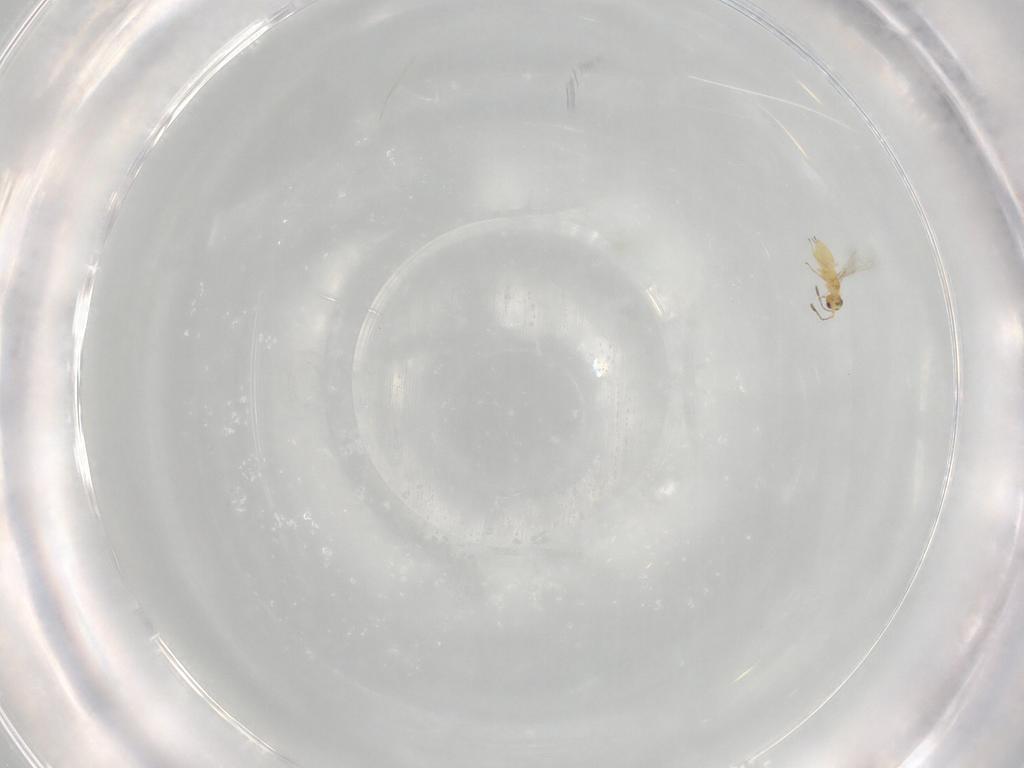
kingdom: Animalia
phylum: Arthropoda
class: Insecta
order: Hymenoptera
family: Aphelinidae
